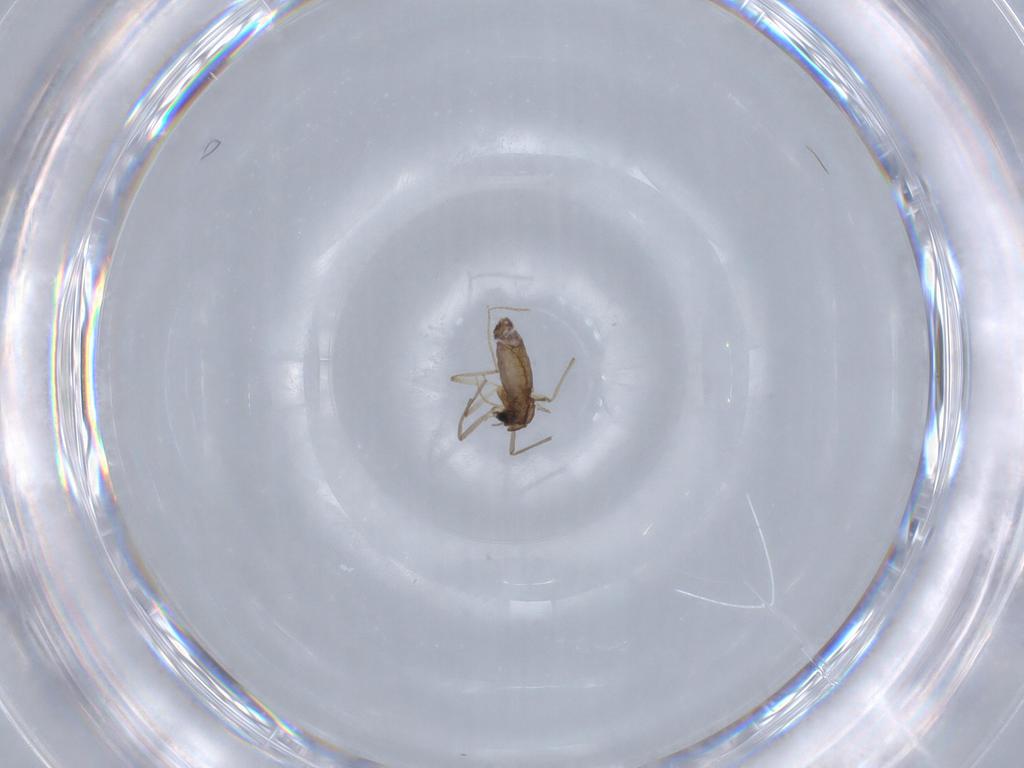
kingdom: Animalia
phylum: Arthropoda
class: Insecta
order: Diptera
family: Chironomidae
